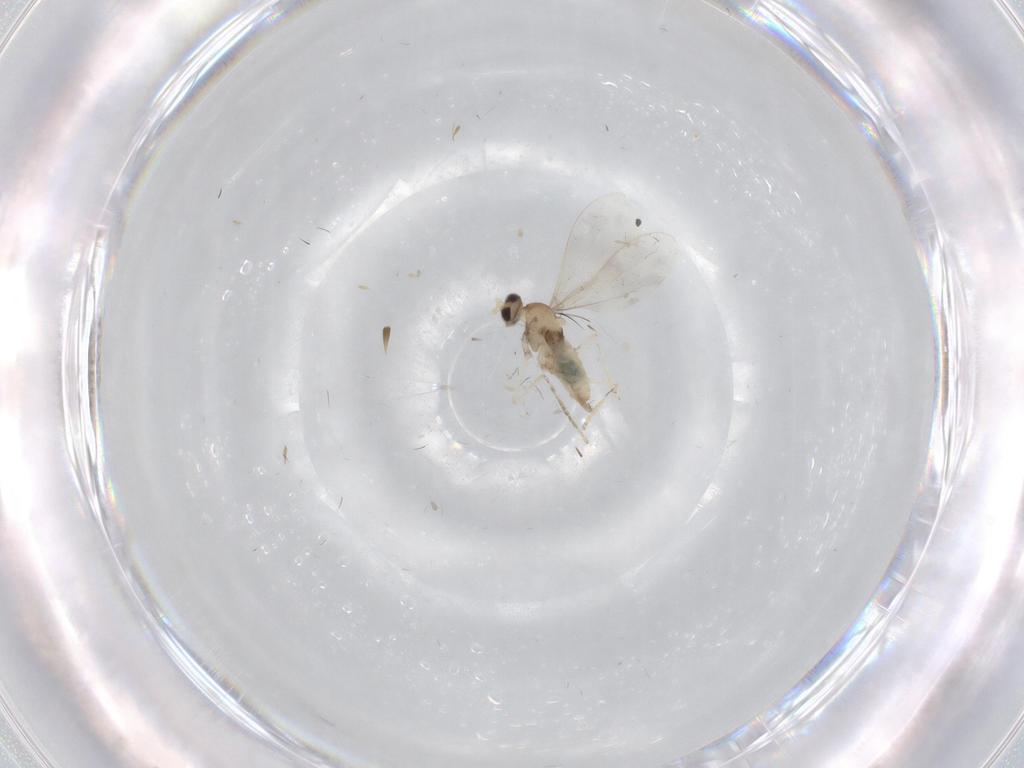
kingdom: Animalia
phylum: Arthropoda
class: Insecta
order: Diptera
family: Cecidomyiidae
